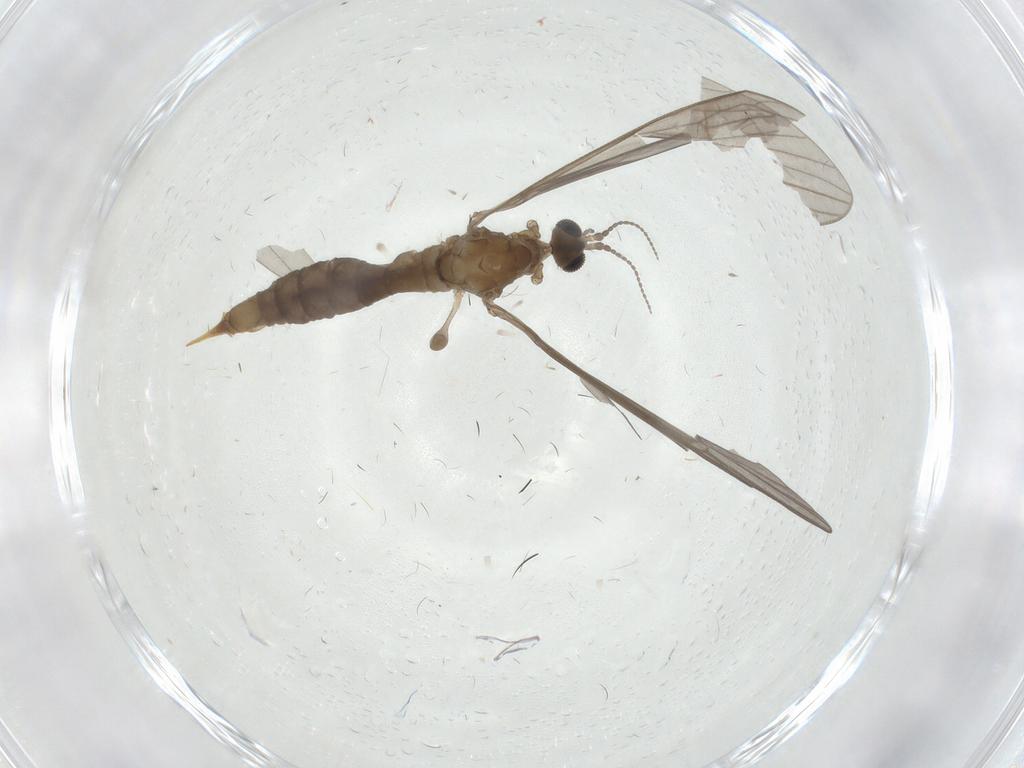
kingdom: Animalia
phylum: Arthropoda
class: Insecta
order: Diptera
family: Limoniidae
